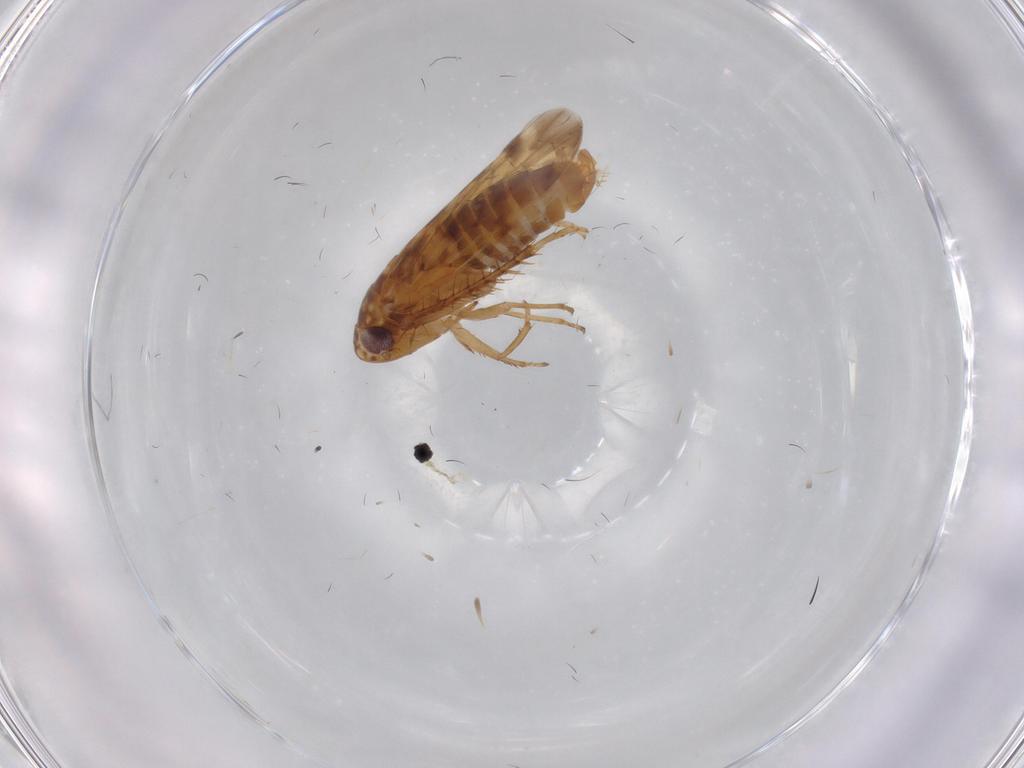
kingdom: Animalia
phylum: Arthropoda
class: Insecta
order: Hemiptera
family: Cicadellidae
